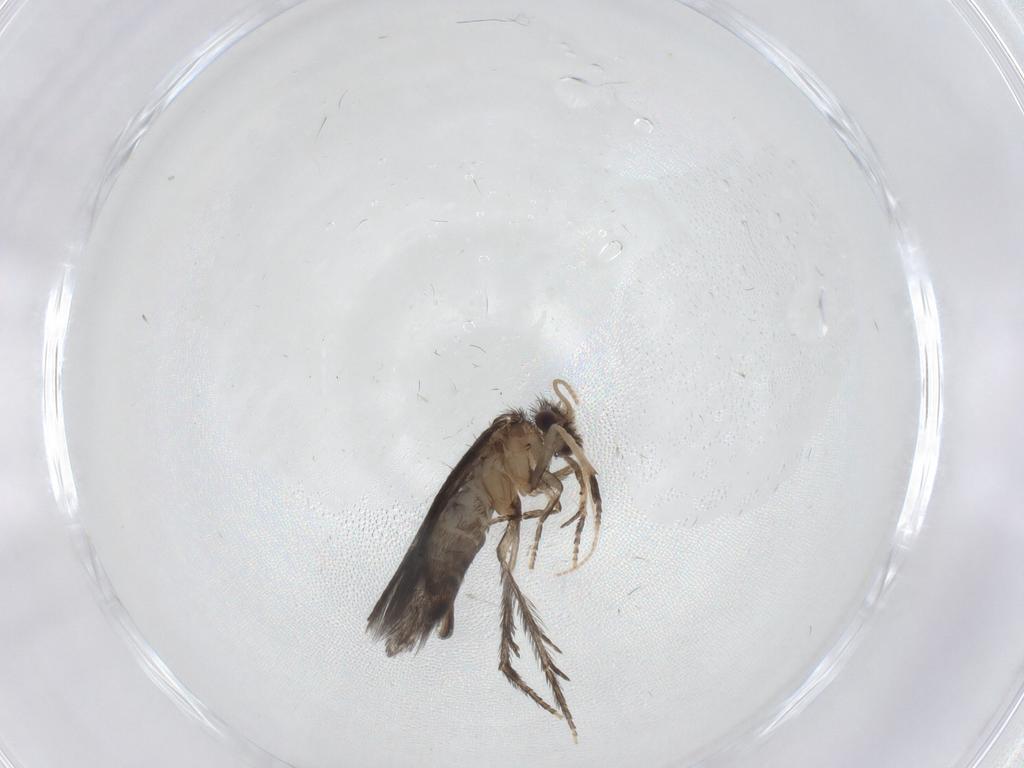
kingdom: Animalia
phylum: Arthropoda
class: Insecta
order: Trichoptera
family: Hydroptilidae
